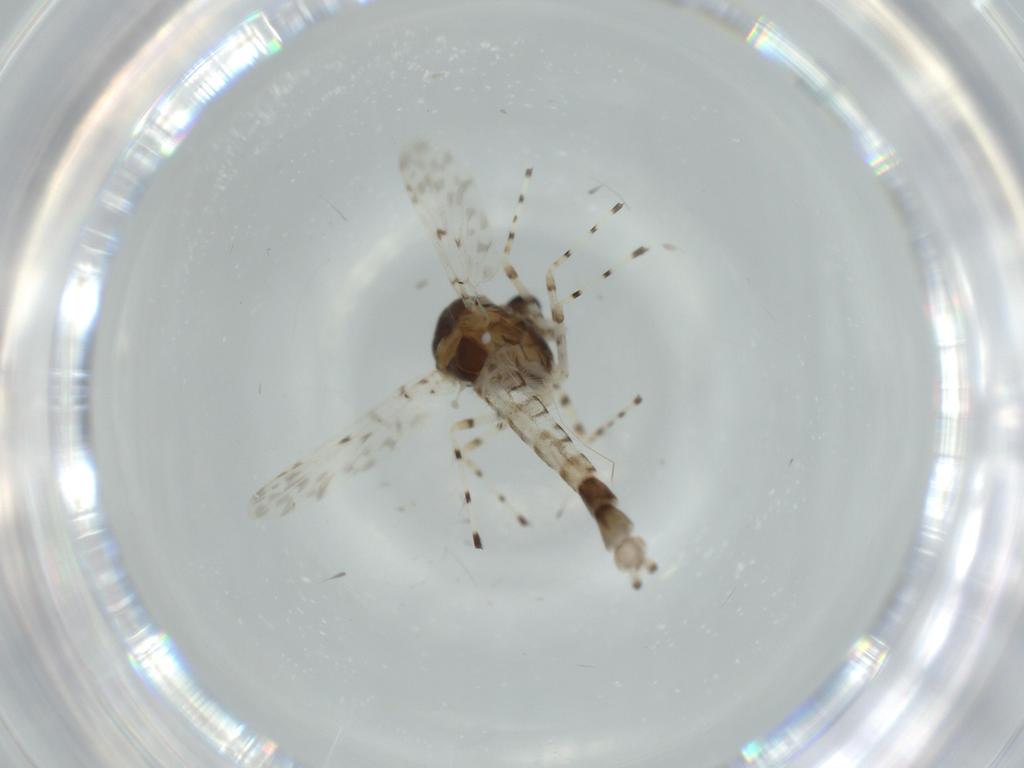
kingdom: Animalia
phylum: Arthropoda
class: Insecta
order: Diptera
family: Chironomidae
